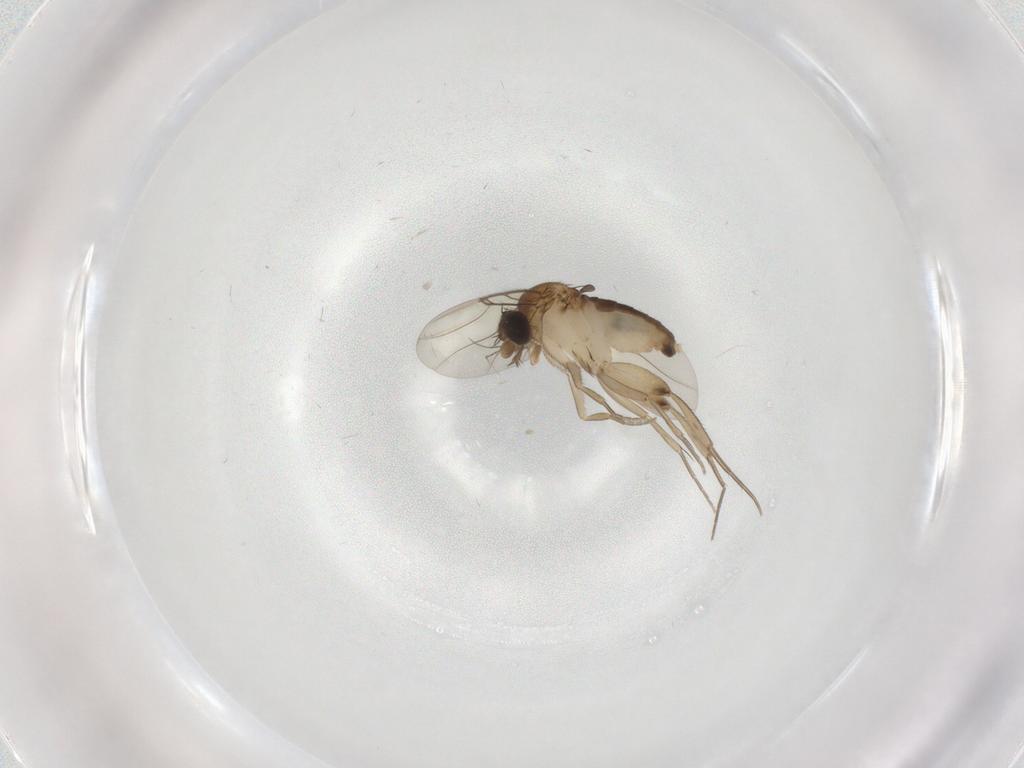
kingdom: Animalia
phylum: Arthropoda
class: Insecta
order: Diptera
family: Phoridae
